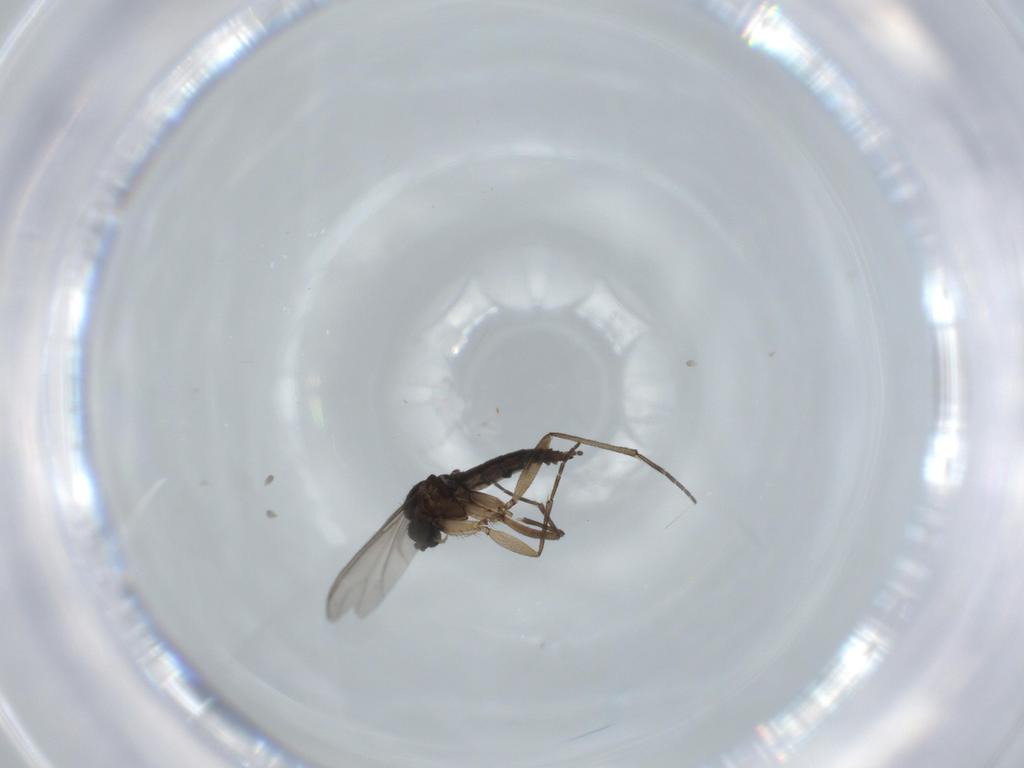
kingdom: Animalia
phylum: Arthropoda
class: Insecta
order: Diptera
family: Sciaridae
